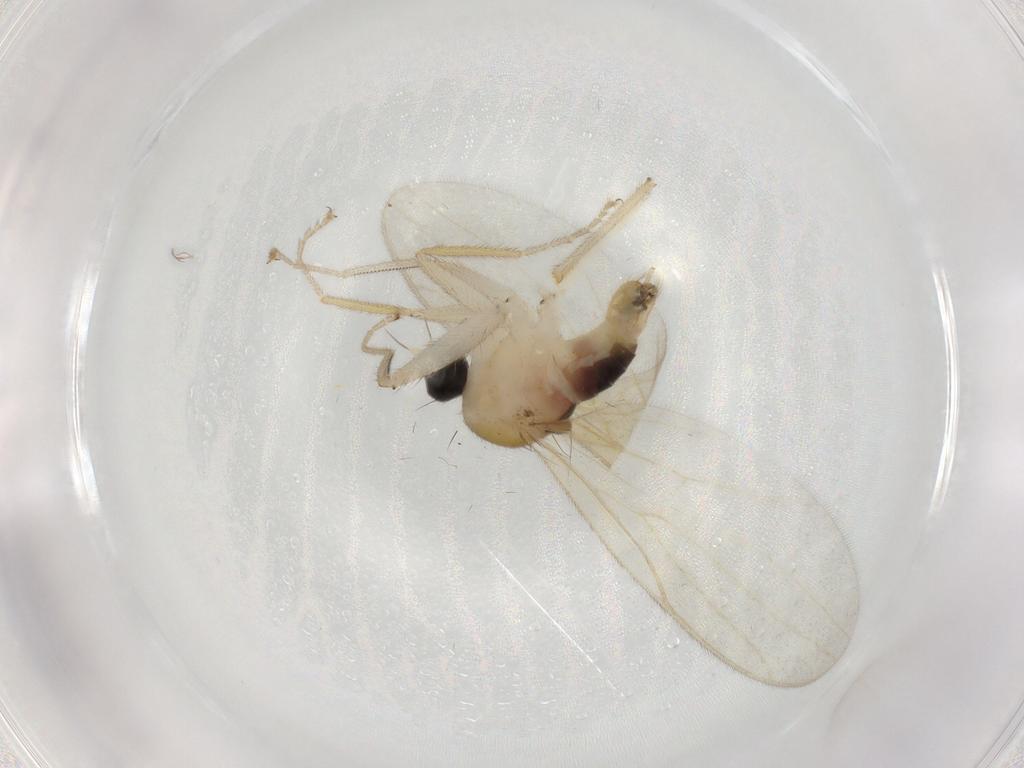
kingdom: Animalia
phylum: Arthropoda
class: Insecta
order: Diptera
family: Hybotidae
